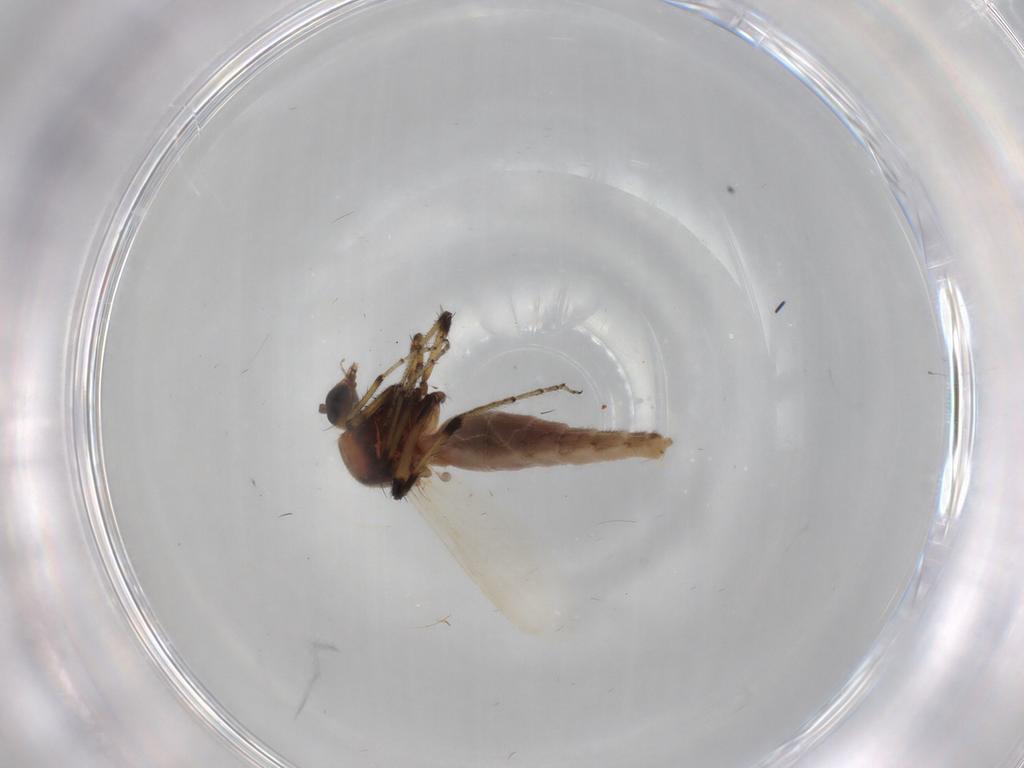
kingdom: Animalia
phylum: Arthropoda
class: Insecta
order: Diptera
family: Ceratopogonidae
